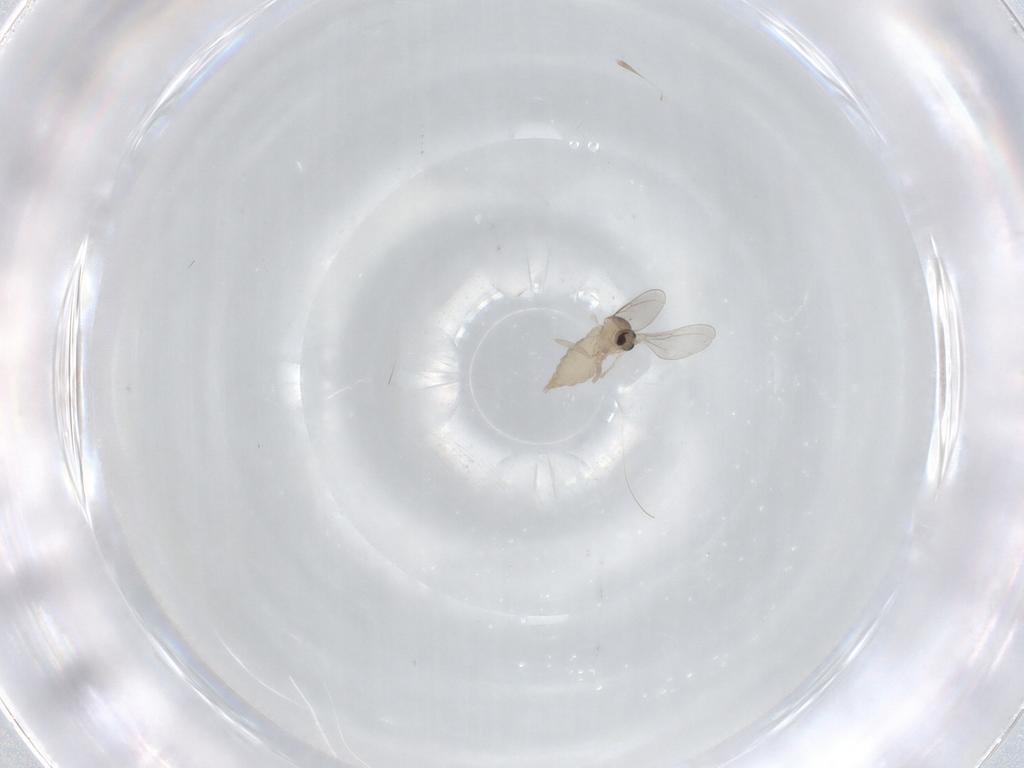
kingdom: Animalia
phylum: Arthropoda
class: Insecta
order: Diptera
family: Cecidomyiidae
